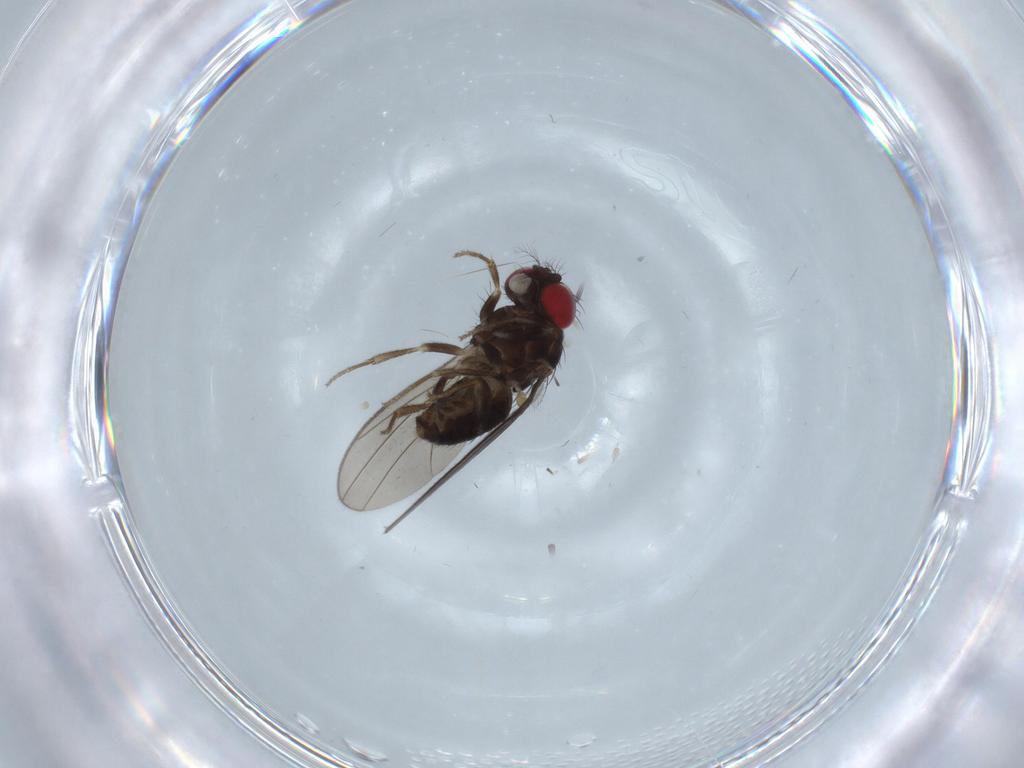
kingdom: Animalia
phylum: Arthropoda
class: Insecta
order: Diptera
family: Drosophilidae
